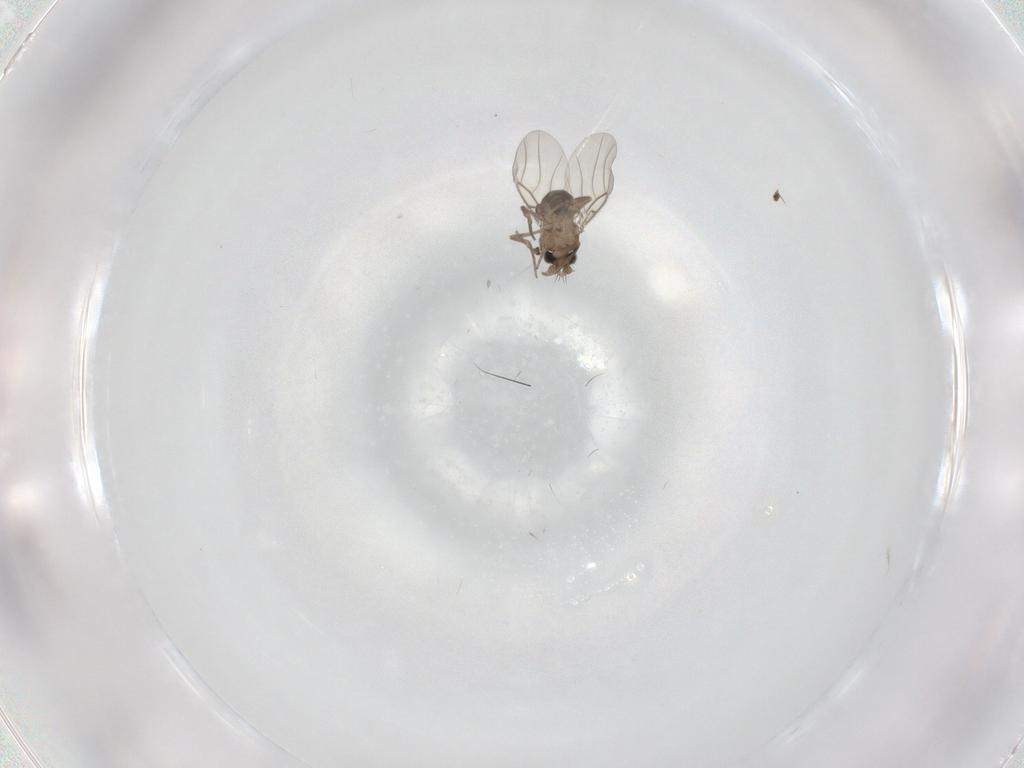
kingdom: Animalia
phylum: Arthropoda
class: Insecta
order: Diptera
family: Phoridae
